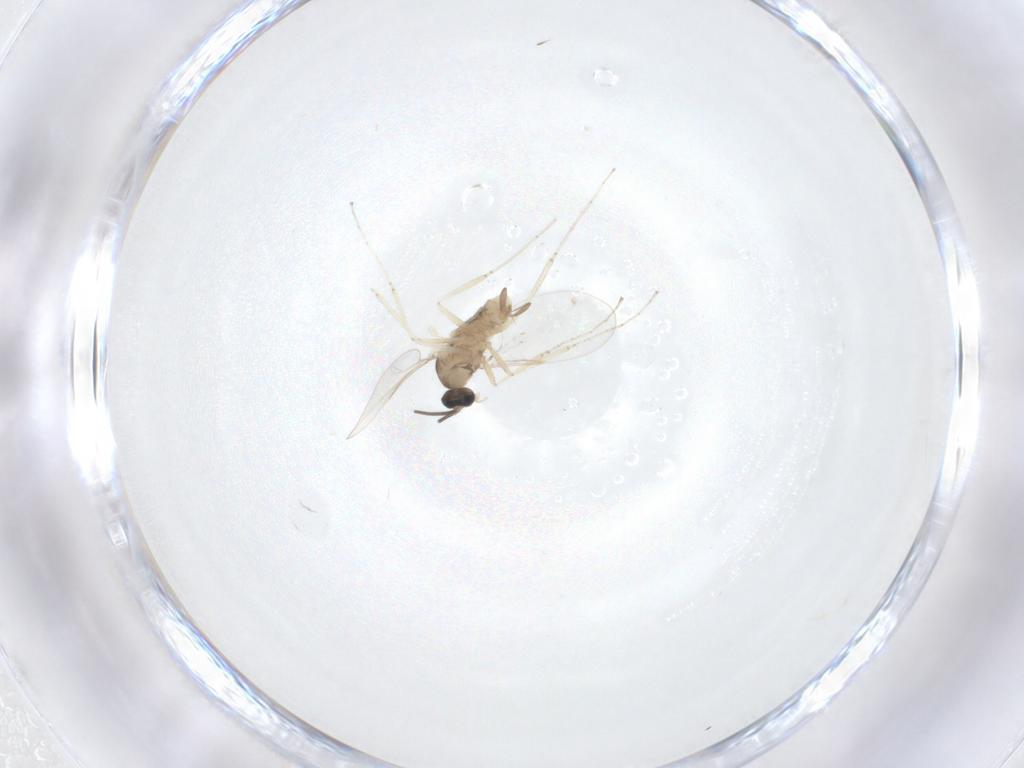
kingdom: Animalia
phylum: Arthropoda
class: Insecta
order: Diptera
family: Cecidomyiidae
